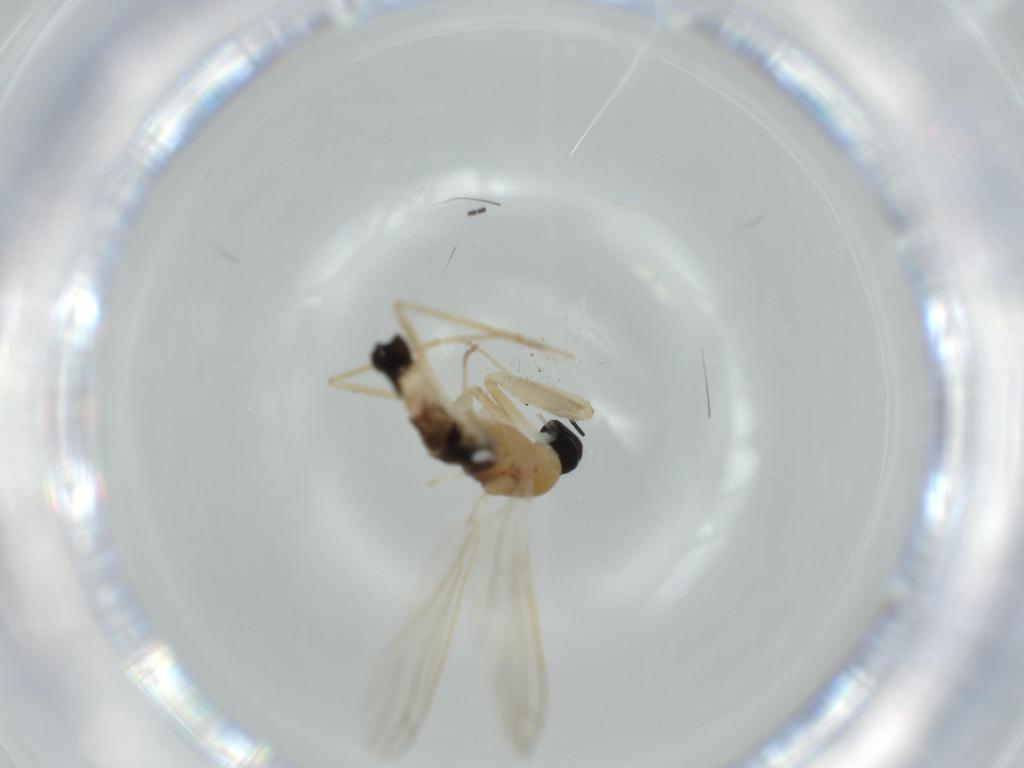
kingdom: Animalia
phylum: Arthropoda
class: Insecta
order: Diptera
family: Empididae
